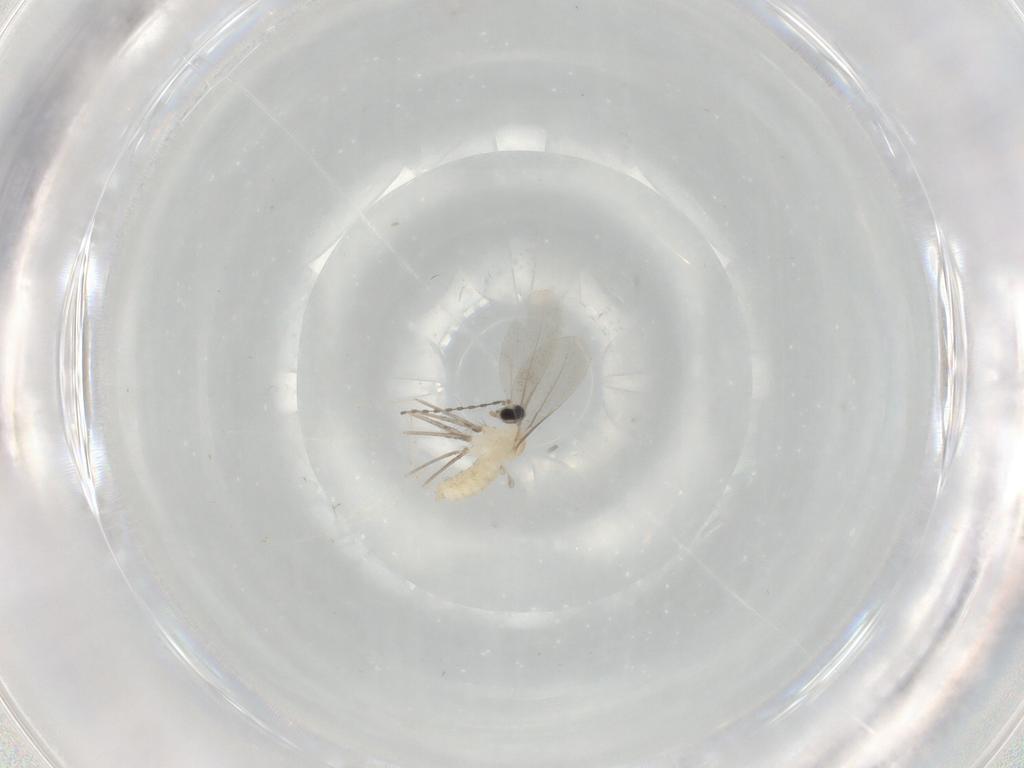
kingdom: Animalia
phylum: Arthropoda
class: Insecta
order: Diptera
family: Cecidomyiidae
